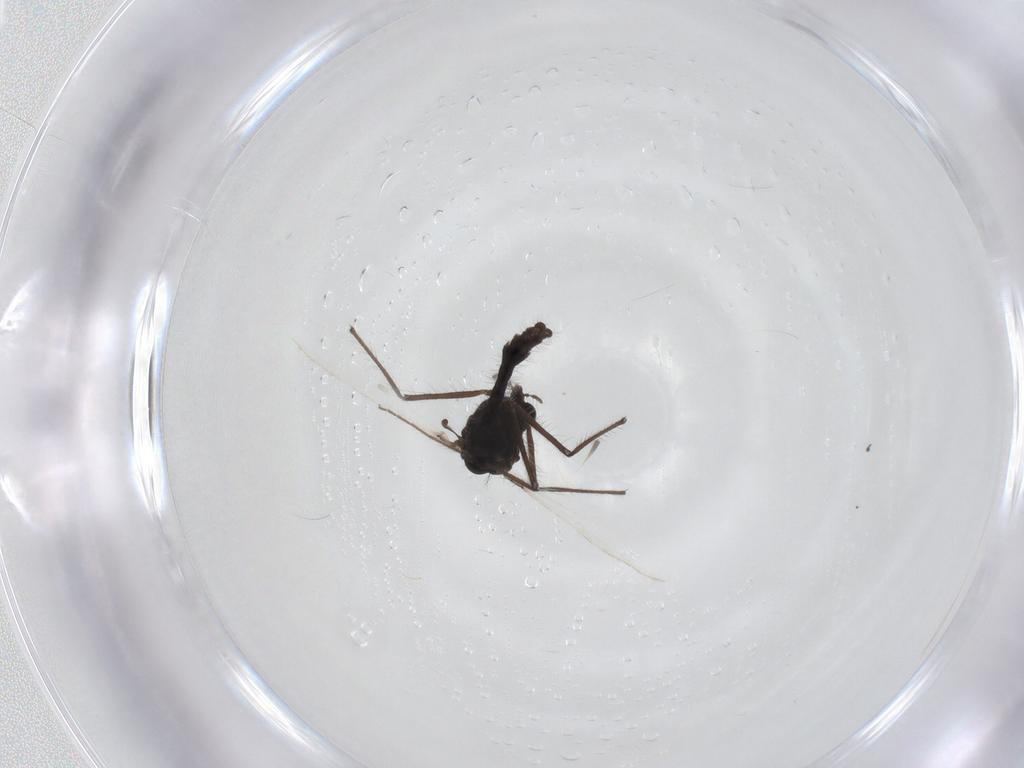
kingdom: Animalia
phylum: Arthropoda
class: Insecta
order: Diptera
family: Chironomidae
